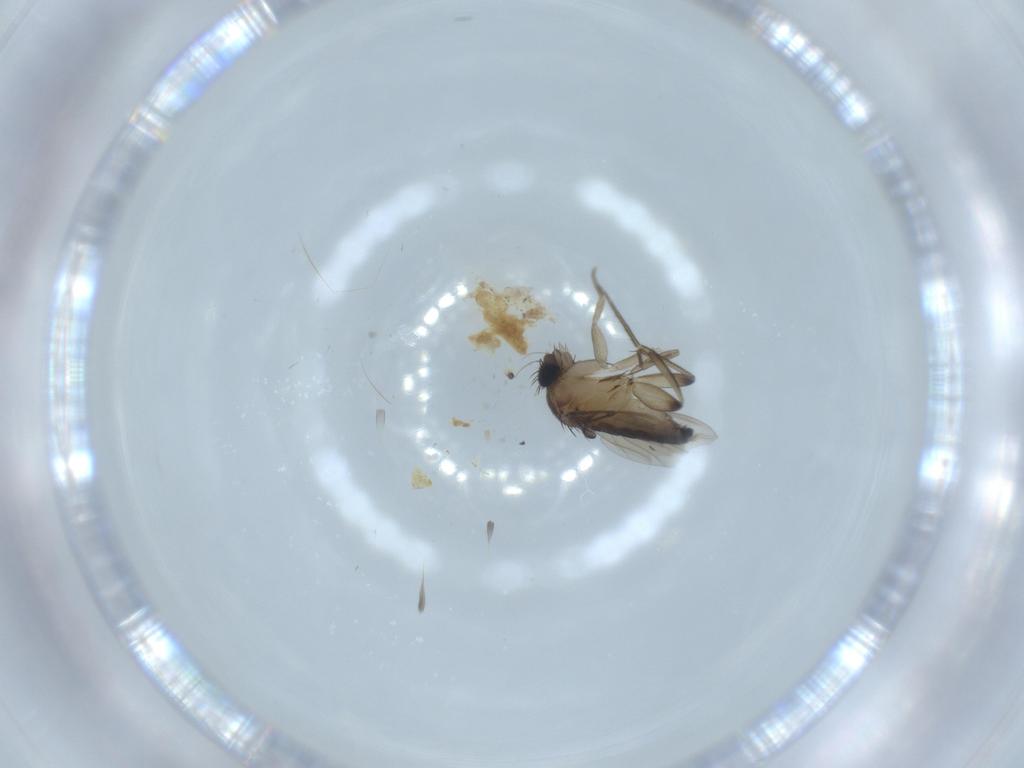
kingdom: Animalia
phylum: Arthropoda
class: Insecta
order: Diptera
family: Phoridae
